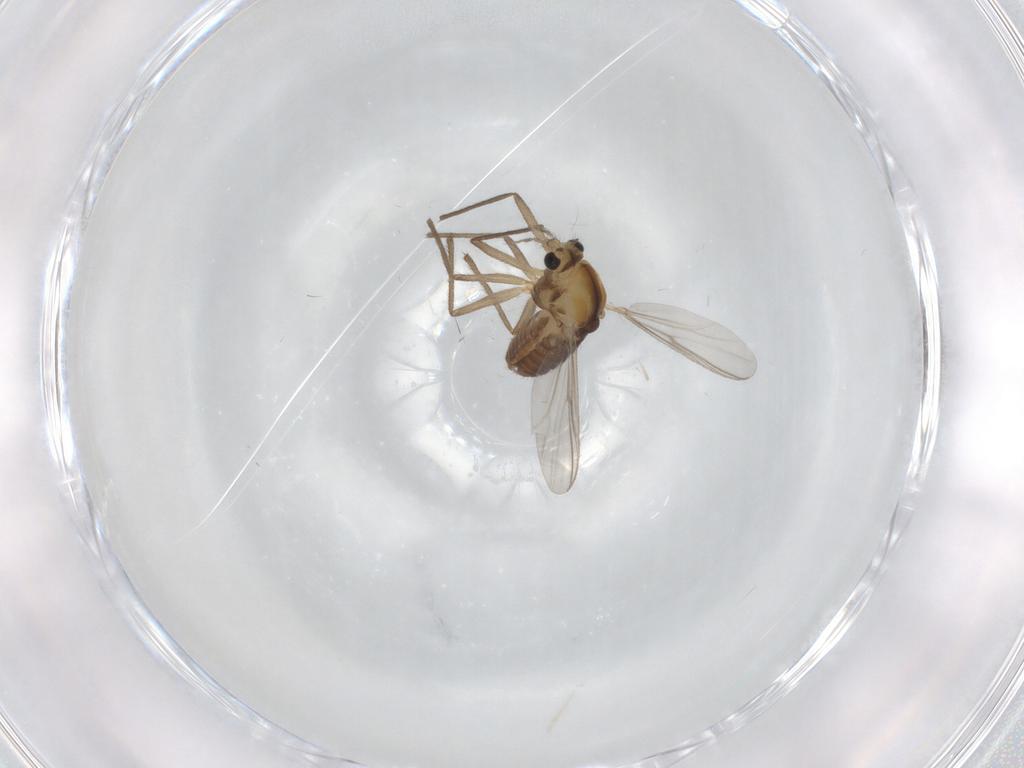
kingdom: Animalia
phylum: Arthropoda
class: Insecta
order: Diptera
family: Chironomidae
